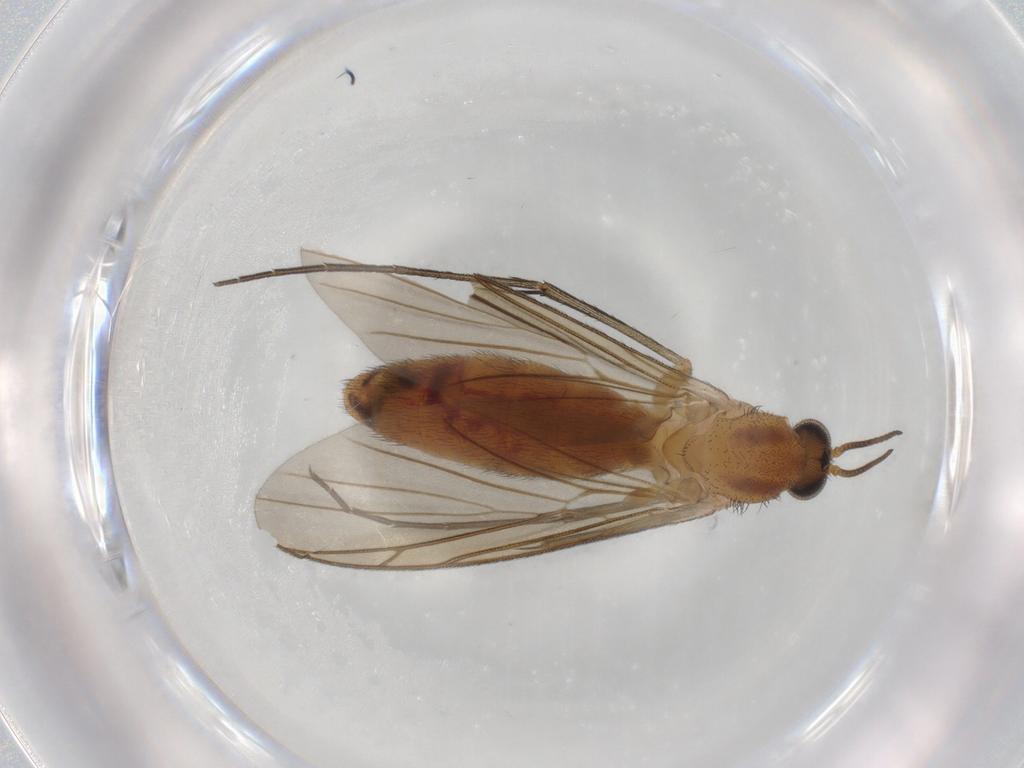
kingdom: Animalia
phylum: Arthropoda
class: Insecta
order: Diptera
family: Keroplatidae
